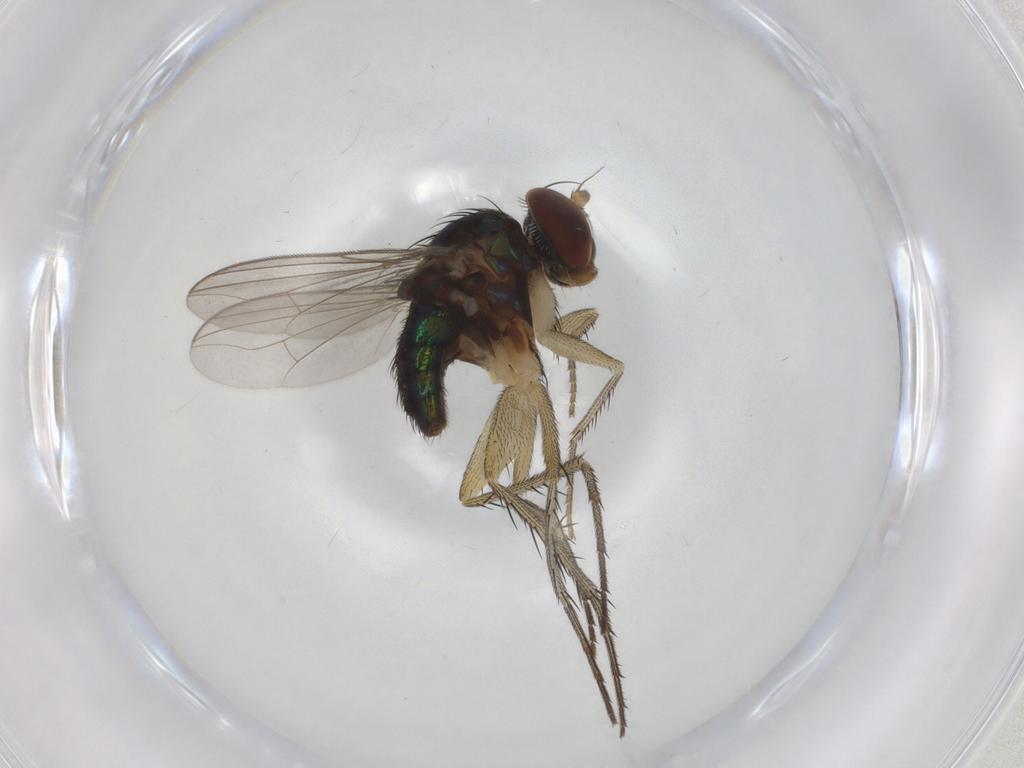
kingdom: Animalia
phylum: Arthropoda
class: Insecta
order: Diptera
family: Dolichopodidae
